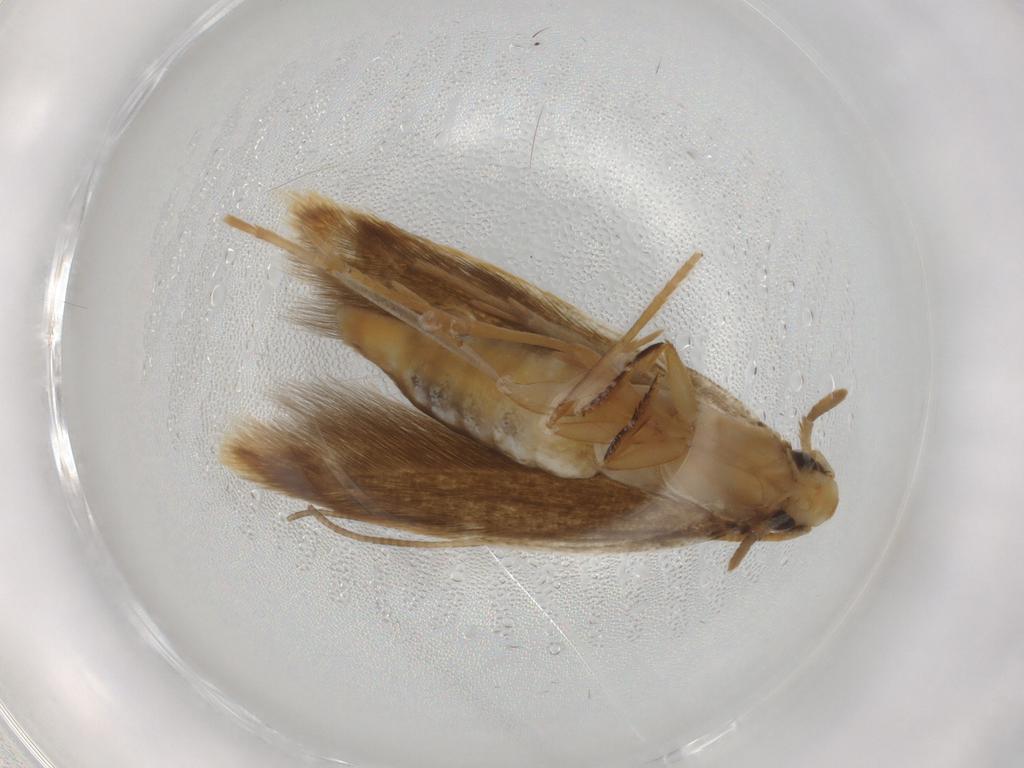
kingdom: Animalia
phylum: Arthropoda
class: Insecta
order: Lepidoptera
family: Tineidae
